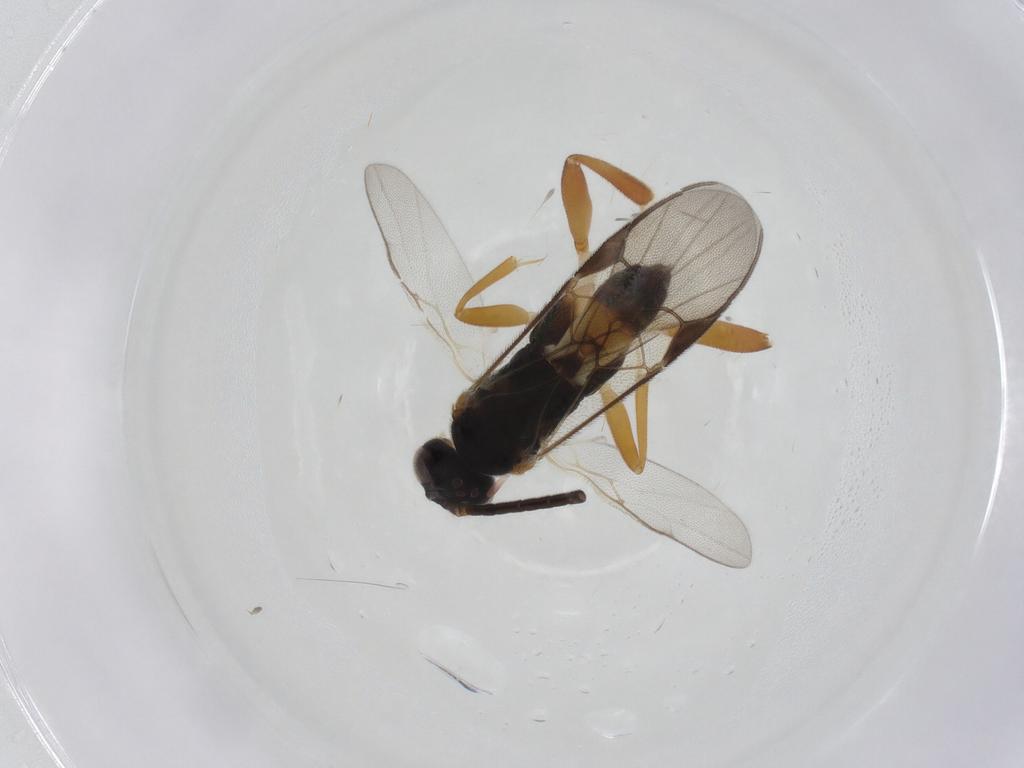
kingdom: Animalia
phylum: Arthropoda
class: Insecta
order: Hymenoptera
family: Braconidae
